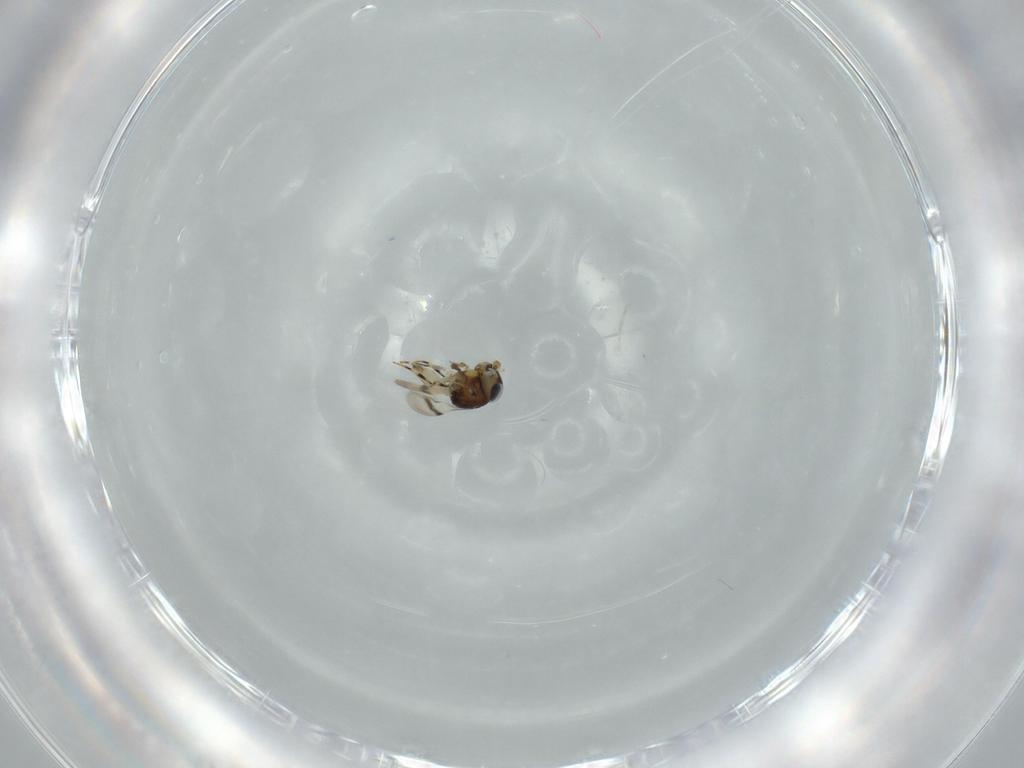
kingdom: Animalia
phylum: Arthropoda
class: Insecta
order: Hymenoptera
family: Scelionidae
